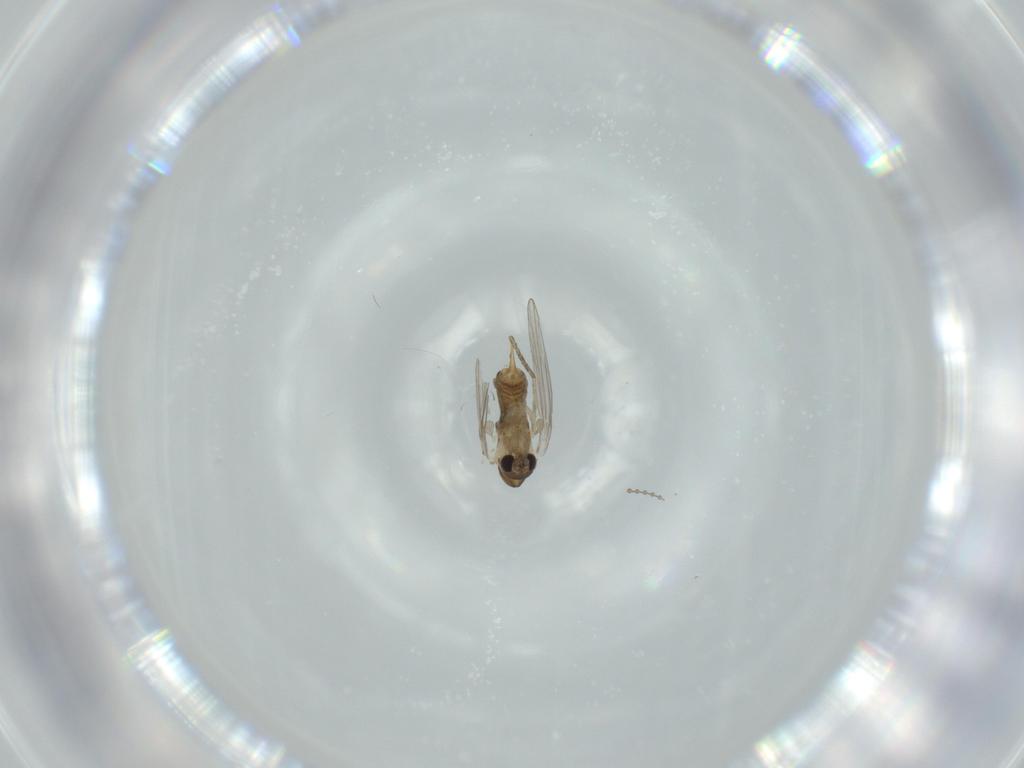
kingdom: Animalia
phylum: Arthropoda
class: Insecta
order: Diptera
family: Psychodidae
